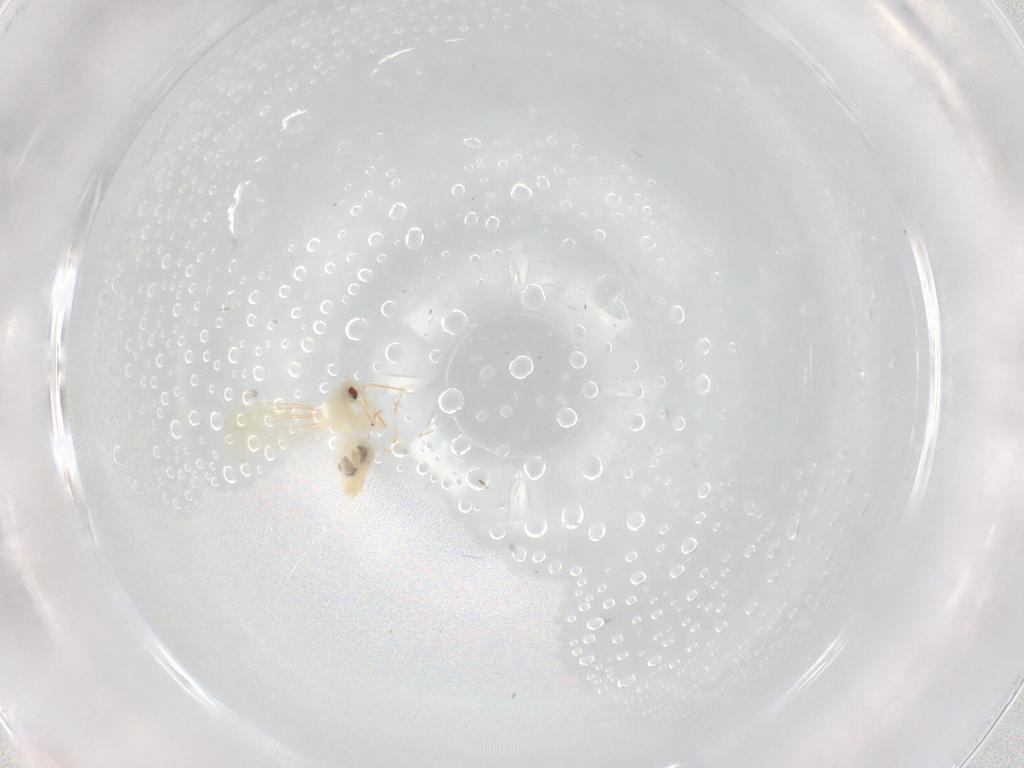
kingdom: Animalia
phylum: Arthropoda
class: Insecta
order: Hemiptera
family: Aleyrodidae
